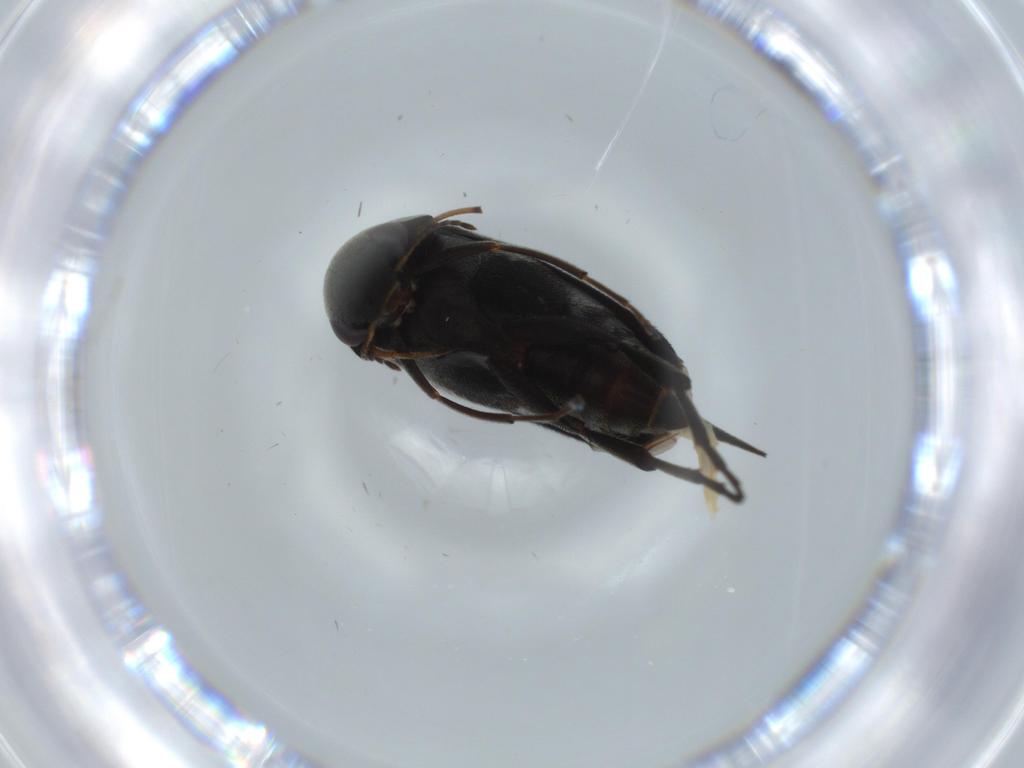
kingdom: Animalia
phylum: Arthropoda
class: Insecta
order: Coleoptera
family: Mordellidae
